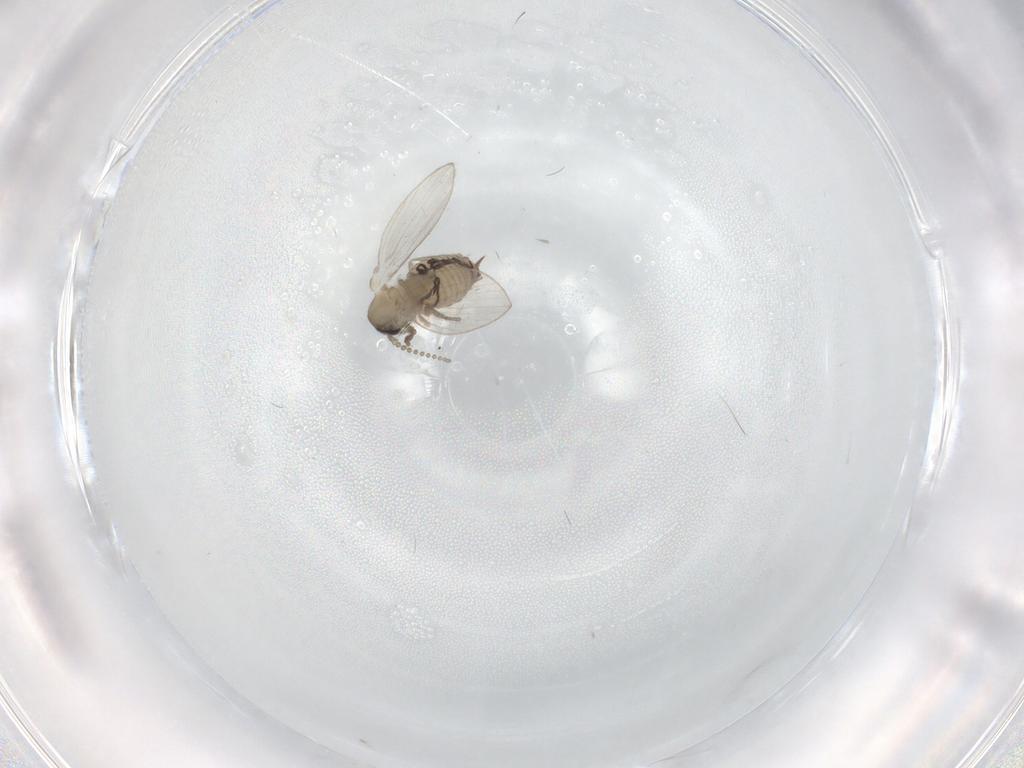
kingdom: Animalia
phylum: Arthropoda
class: Insecta
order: Diptera
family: Psychodidae
